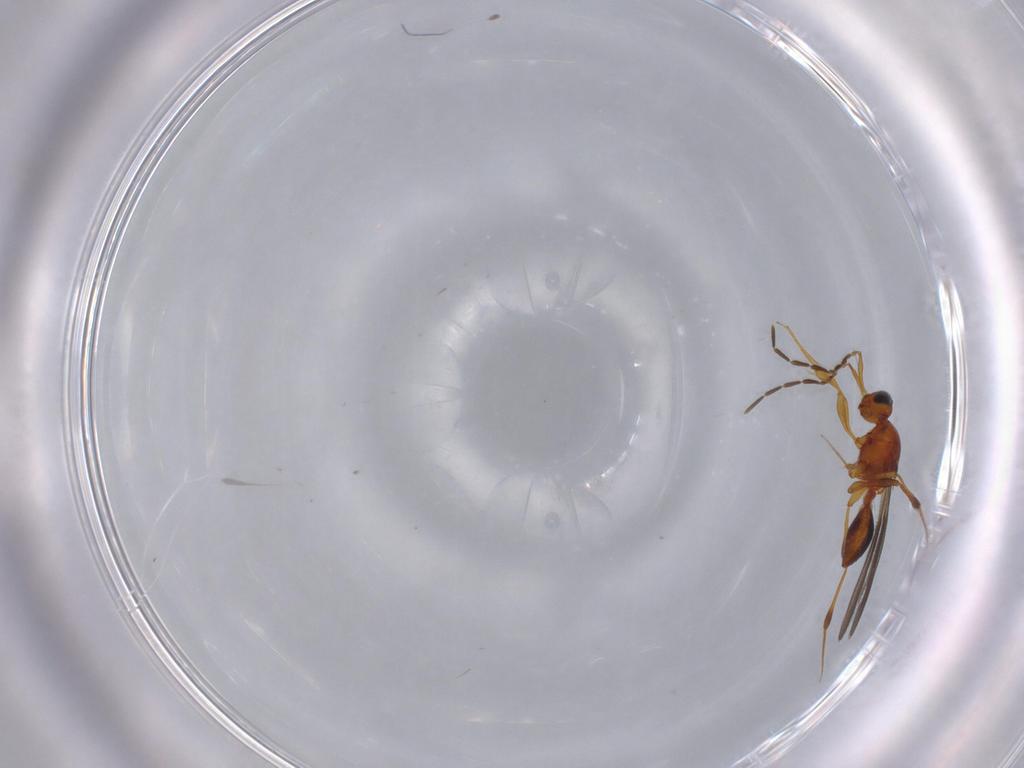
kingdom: Animalia
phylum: Arthropoda
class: Insecta
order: Hymenoptera
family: Platygastridae
